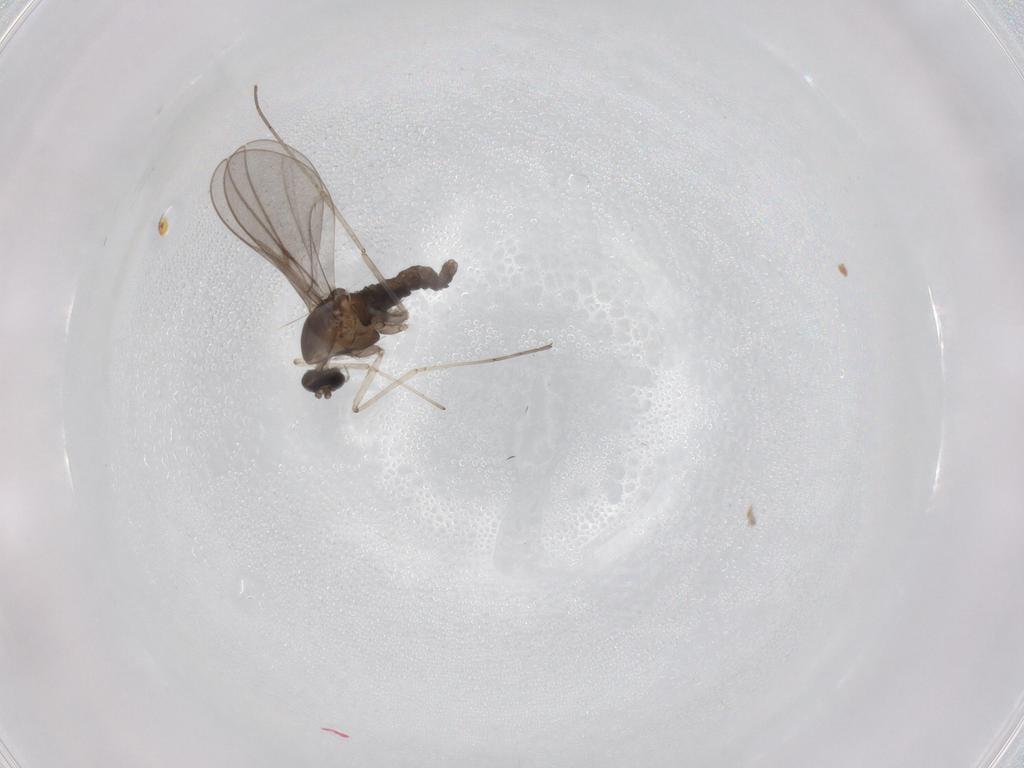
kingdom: Animalia
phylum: Arthropoda
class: Insecta
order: Diptera
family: Cecidomyiidae
